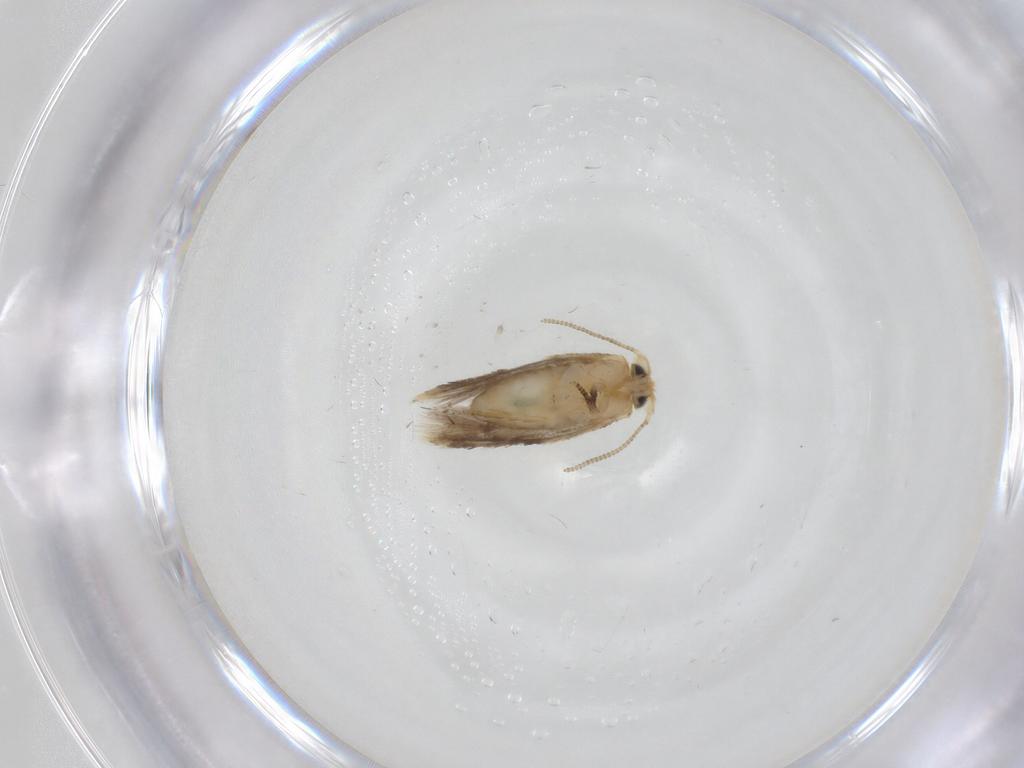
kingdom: Animalia
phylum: Arthropoda
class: Insecta
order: Lepidoptera
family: Nepticulidae
